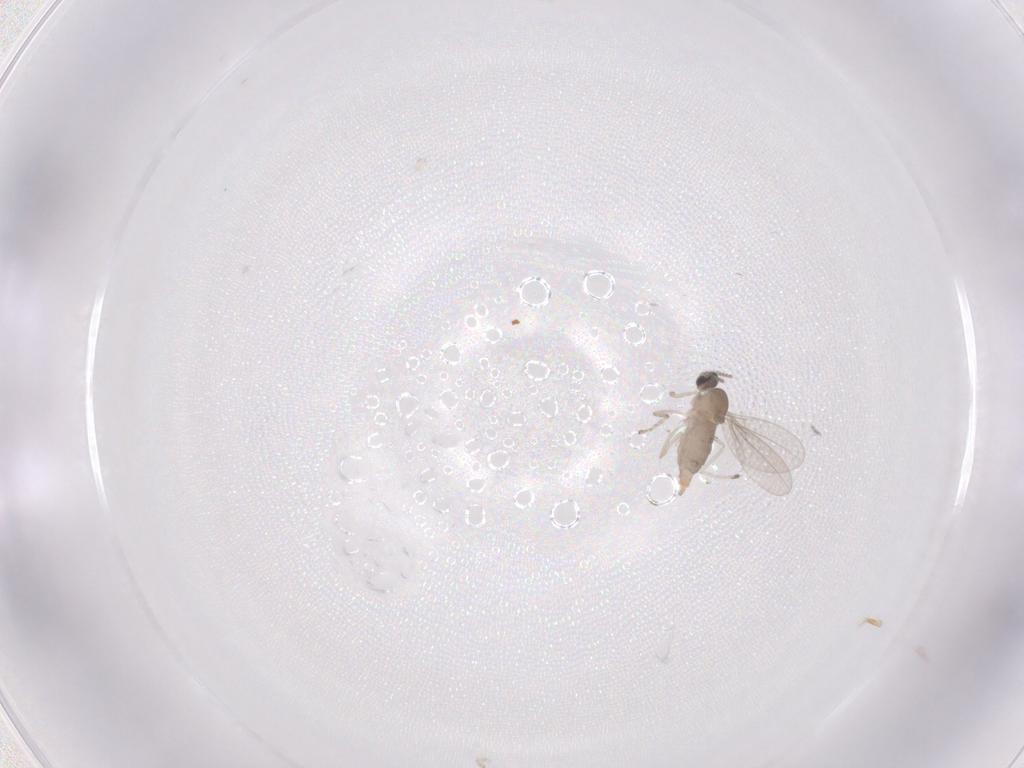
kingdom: Animalia
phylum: Arthropoda
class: Insecta
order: Diptera
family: Cecidomyiidae
